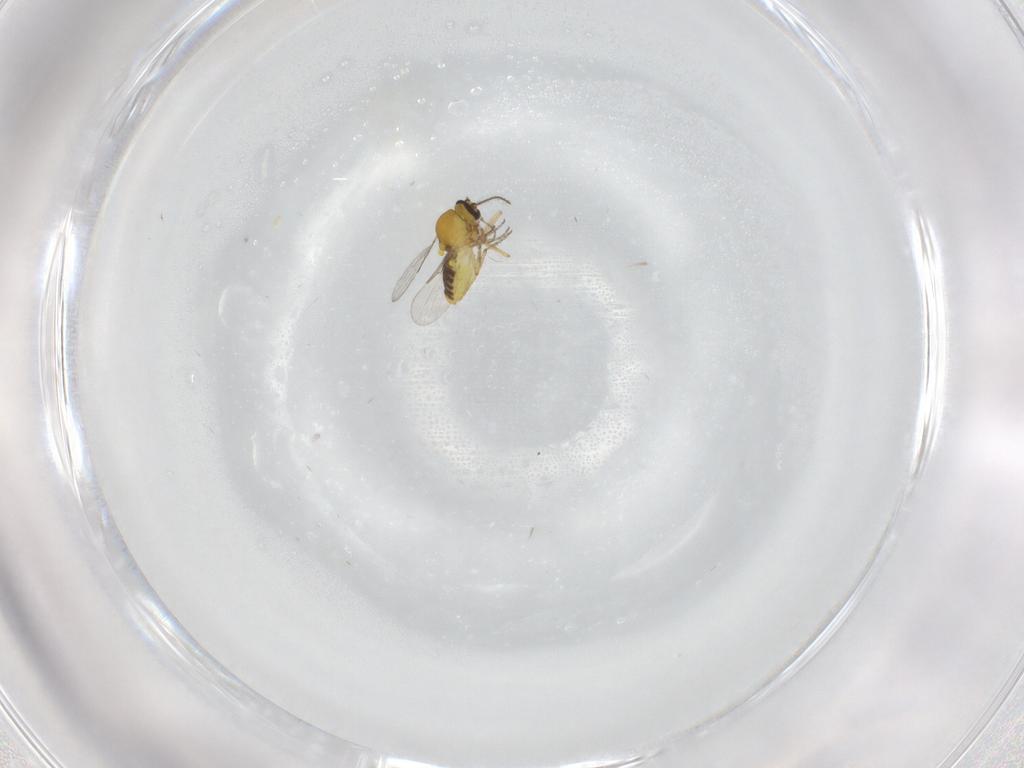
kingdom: Animalia
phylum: Arthropoda
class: Insecta
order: Diptera
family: Ceratopogonidae
